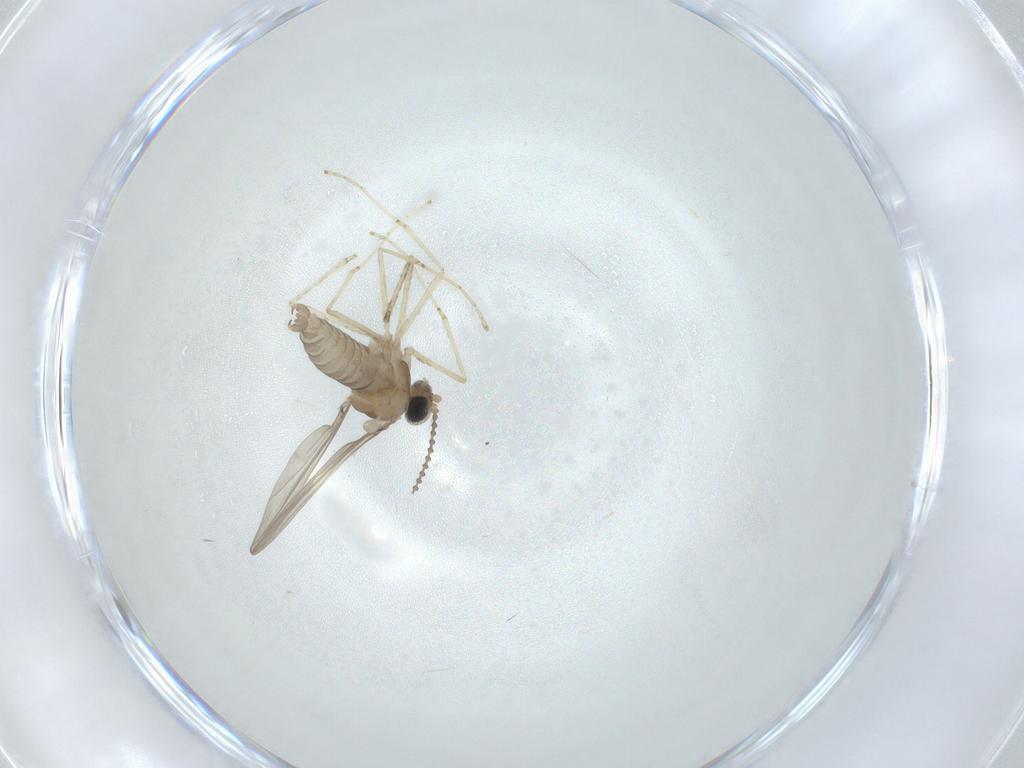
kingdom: Animalia
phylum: Arthropoda
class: Insecta
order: Diptera
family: Cecidomyiidae
